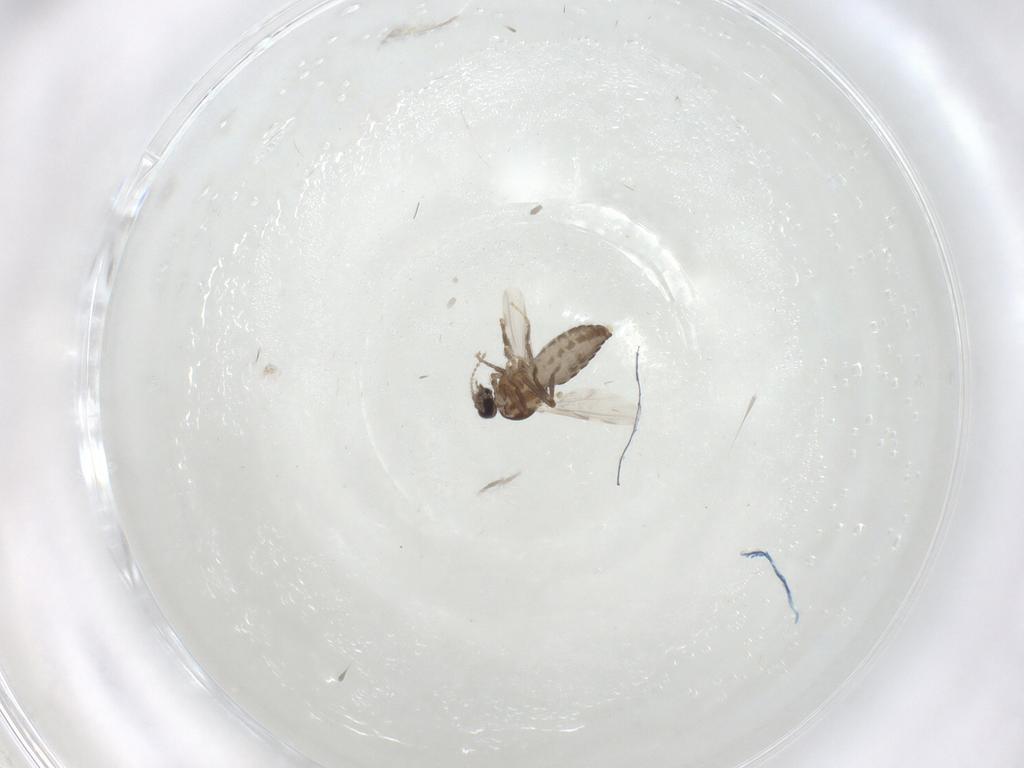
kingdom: Animalia
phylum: Arthropoda
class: Insecta
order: Diptera
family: Ceratopogonidae
